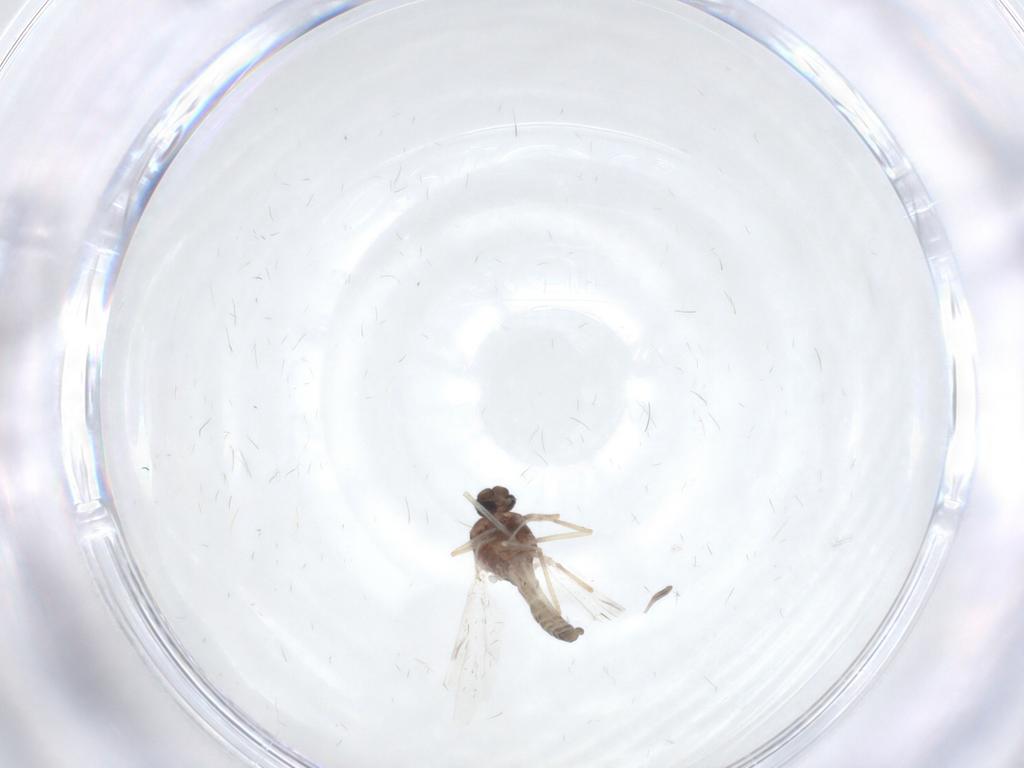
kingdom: Animalia
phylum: Arthropoda
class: Insecta
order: Diptera
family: Ceratopogonidae
